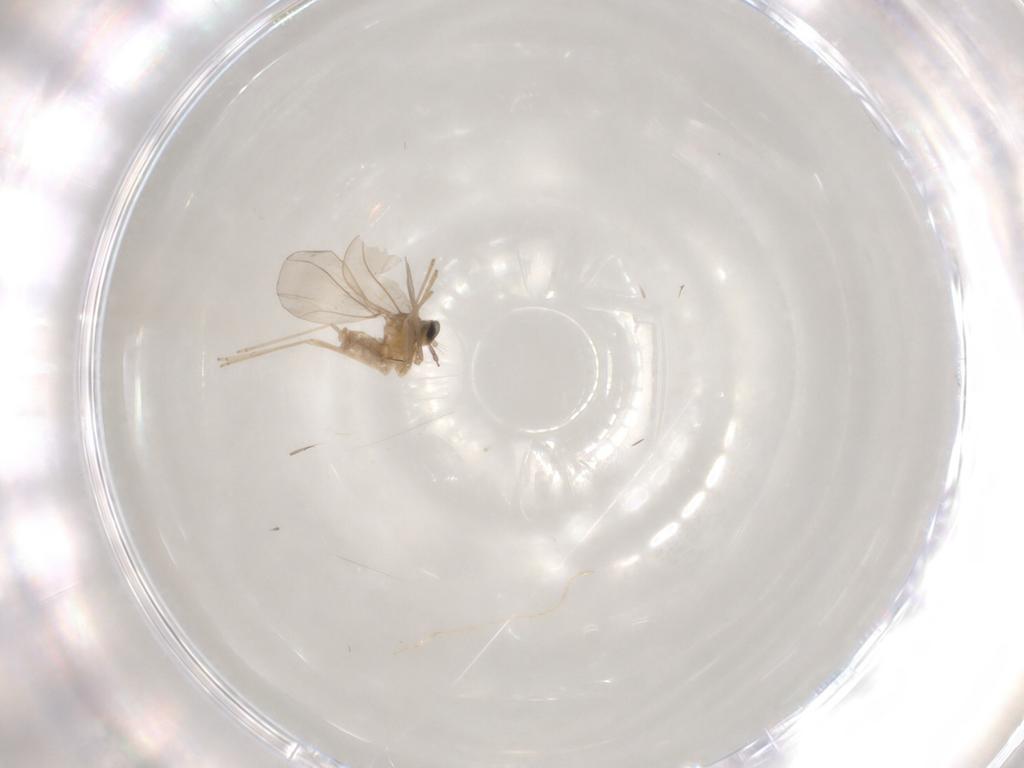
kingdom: Animalia
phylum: Arthropoda
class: Insecta
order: Diptera
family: Cecidomyiidae
